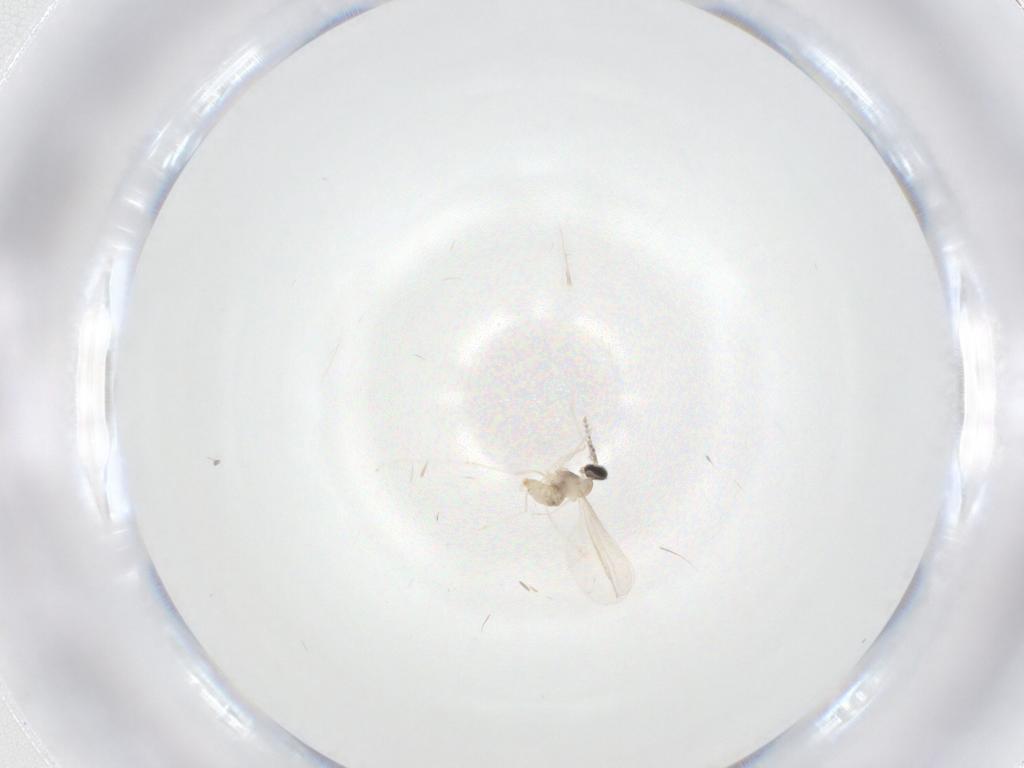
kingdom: Animalia
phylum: Arthropoda
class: Insecta
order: Diptera
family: Cecidomyiidae
